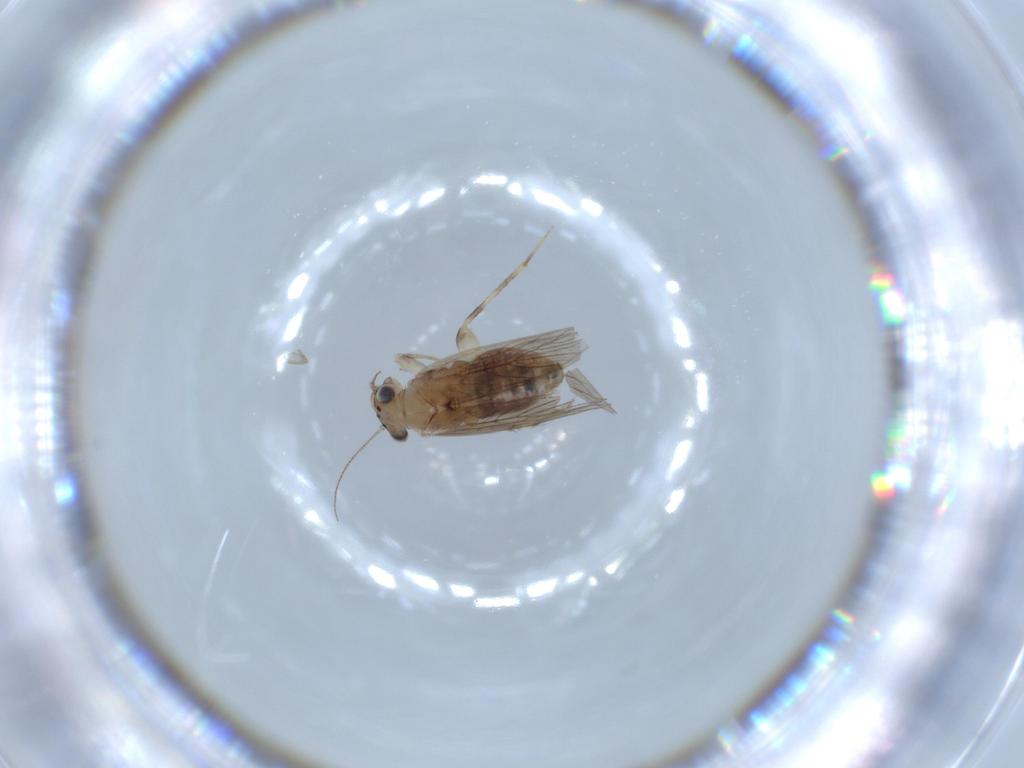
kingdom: Animalia
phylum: Arthropoda
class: Insecta
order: Psocodea
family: Lepidopsocidae
